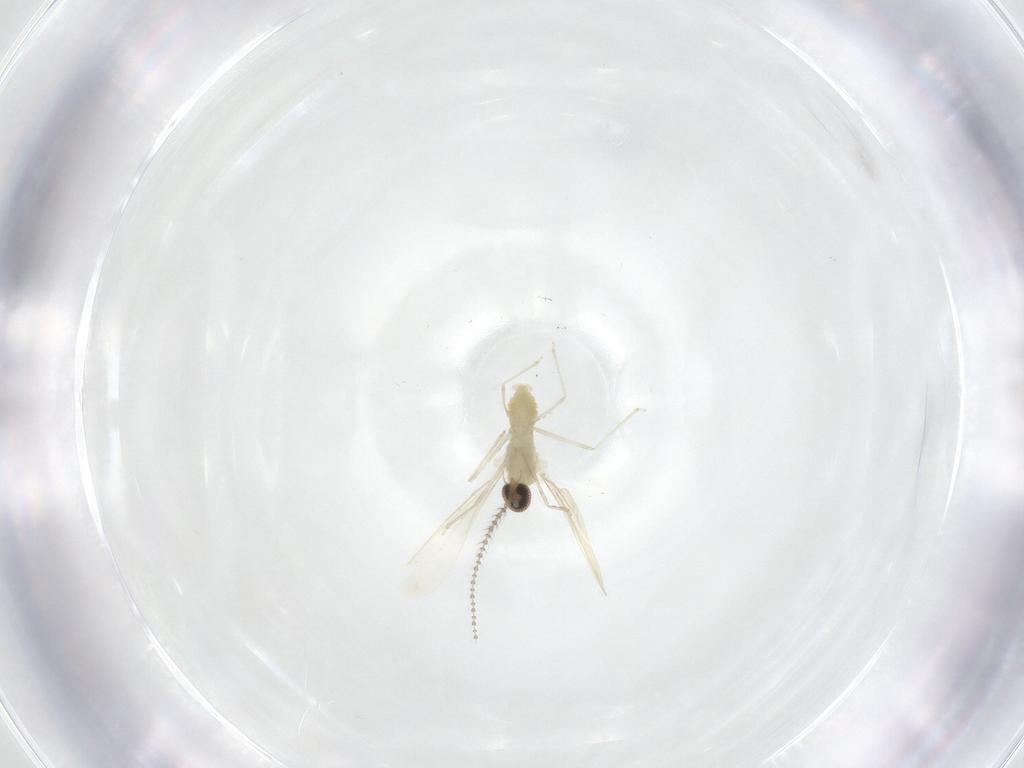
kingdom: Animalia
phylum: Arthropoda
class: Insecta
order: Diptera
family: Cecidomyiidae
